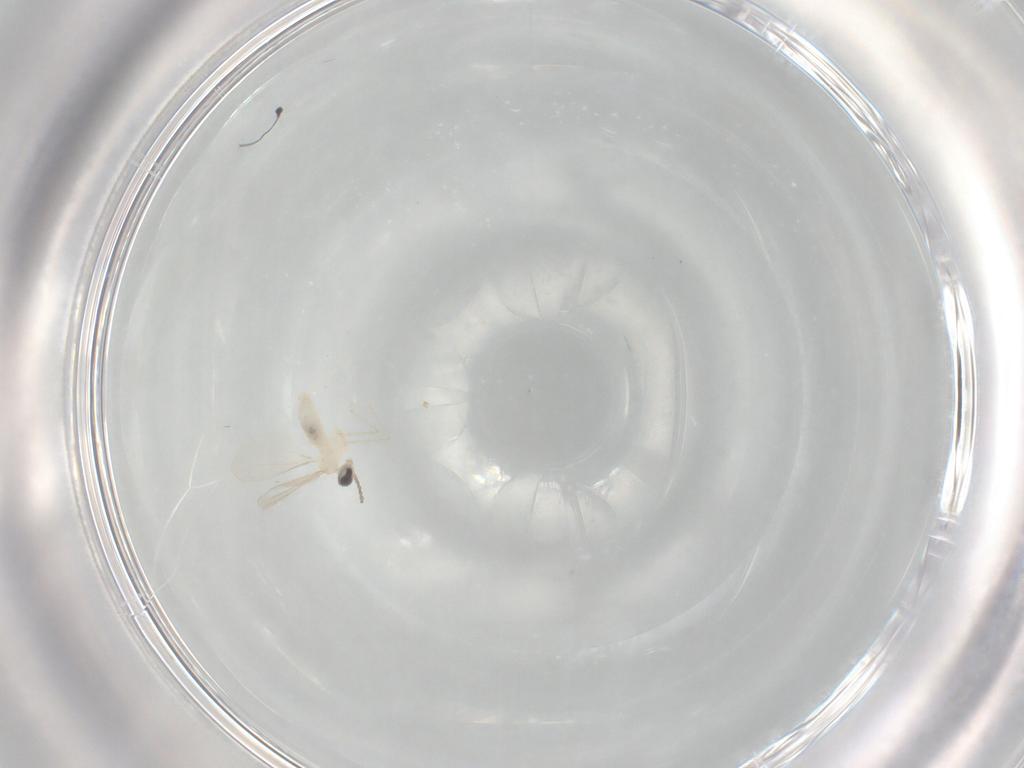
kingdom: Animalia
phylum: Arthropoda
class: Insecta
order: Diptera
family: Cecidomyiidae
